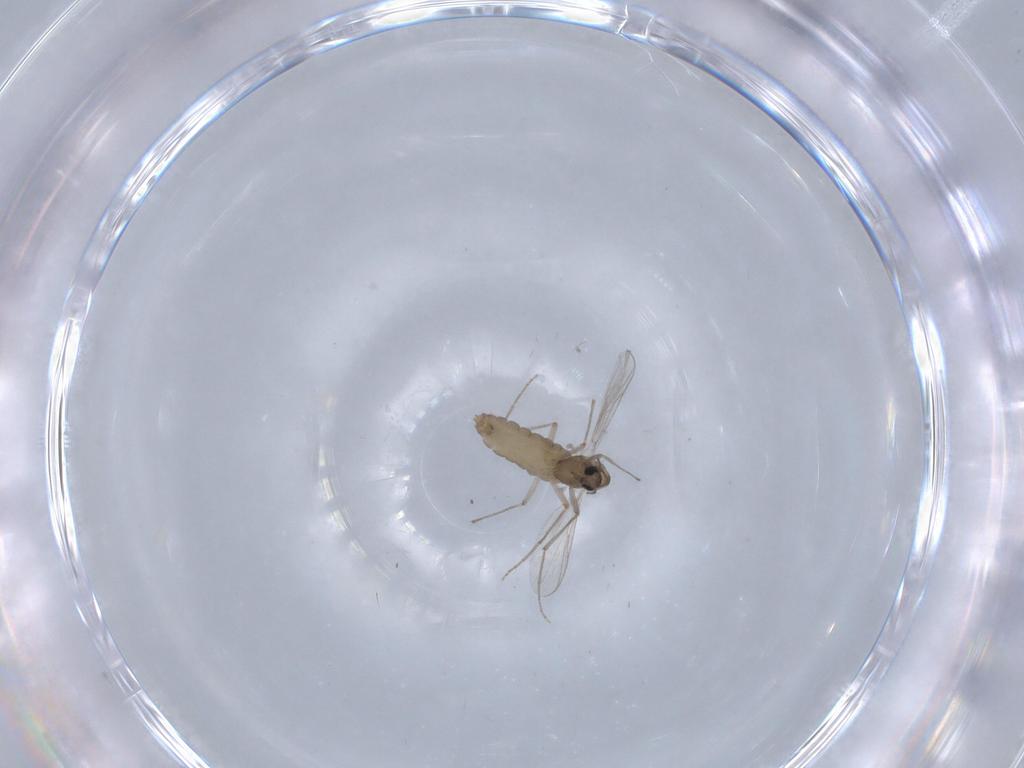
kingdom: Animalia
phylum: Arthropoda
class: Insecta
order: Diptera
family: Chironomidae
